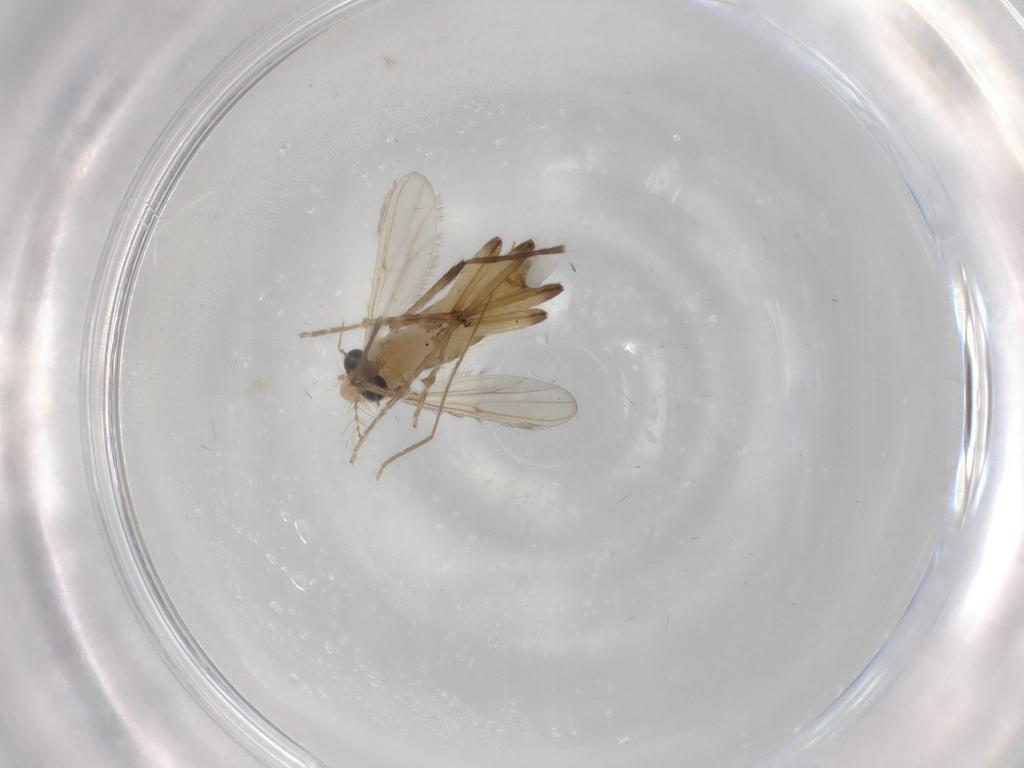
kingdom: Animalia
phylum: Arthropoda
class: Insecta
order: Diptera
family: Chironomidae
